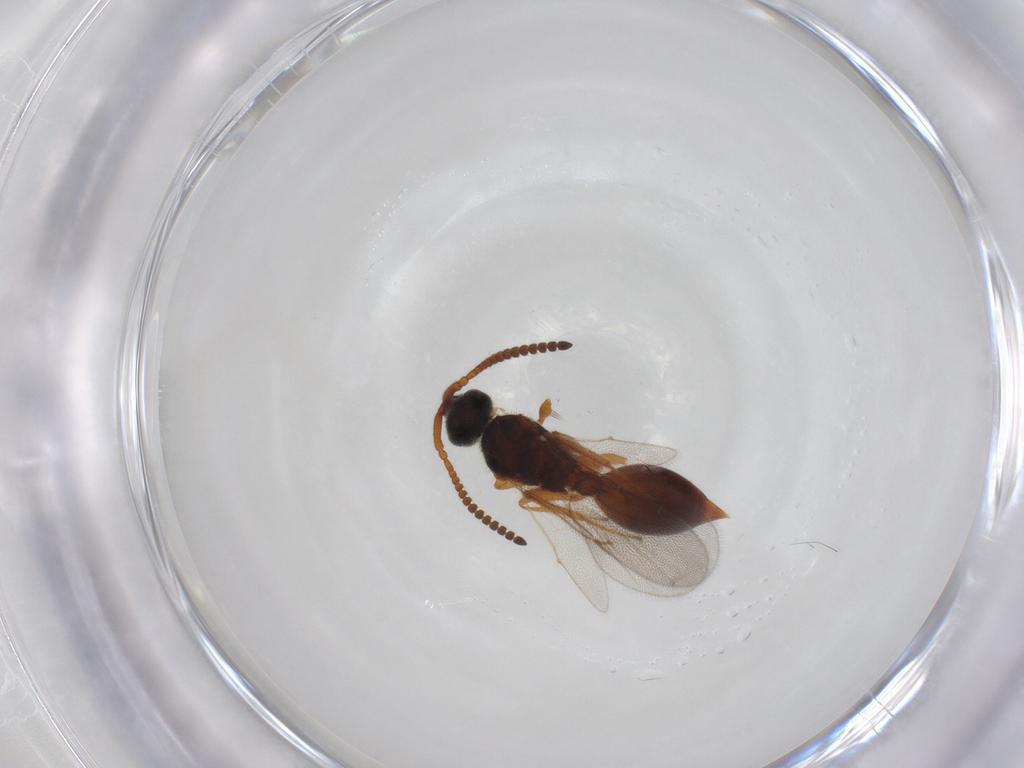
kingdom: Animalia
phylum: Arthropoda
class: Insecta
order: Hymenoptera
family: Diapriidae
